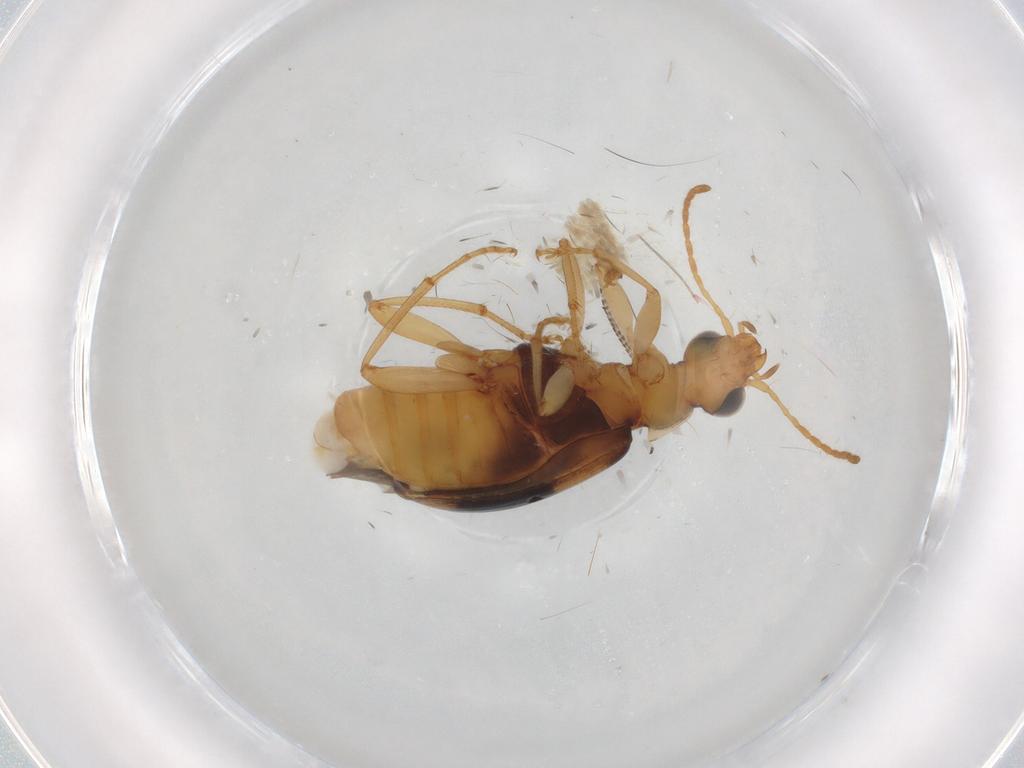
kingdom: Animalia
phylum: Arthropoda
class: Insecta
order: Coleoptera
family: Carabidae
